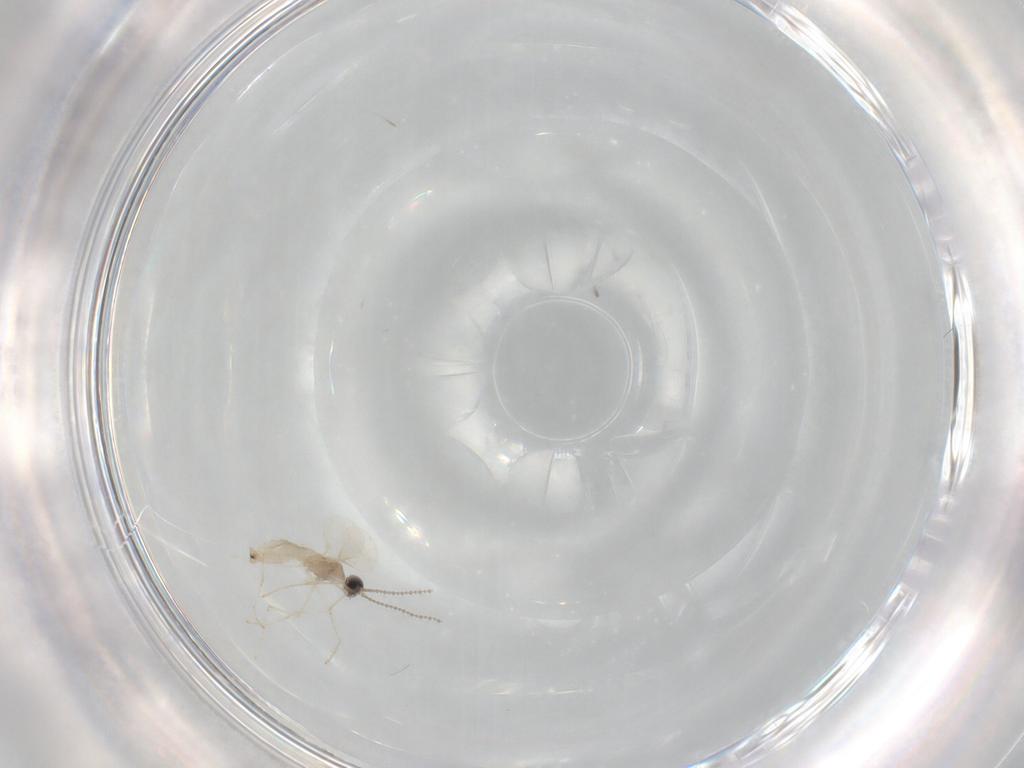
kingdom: Animalia
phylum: Arthropoda
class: Insecta
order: Diptera
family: Cecidomyiidae
